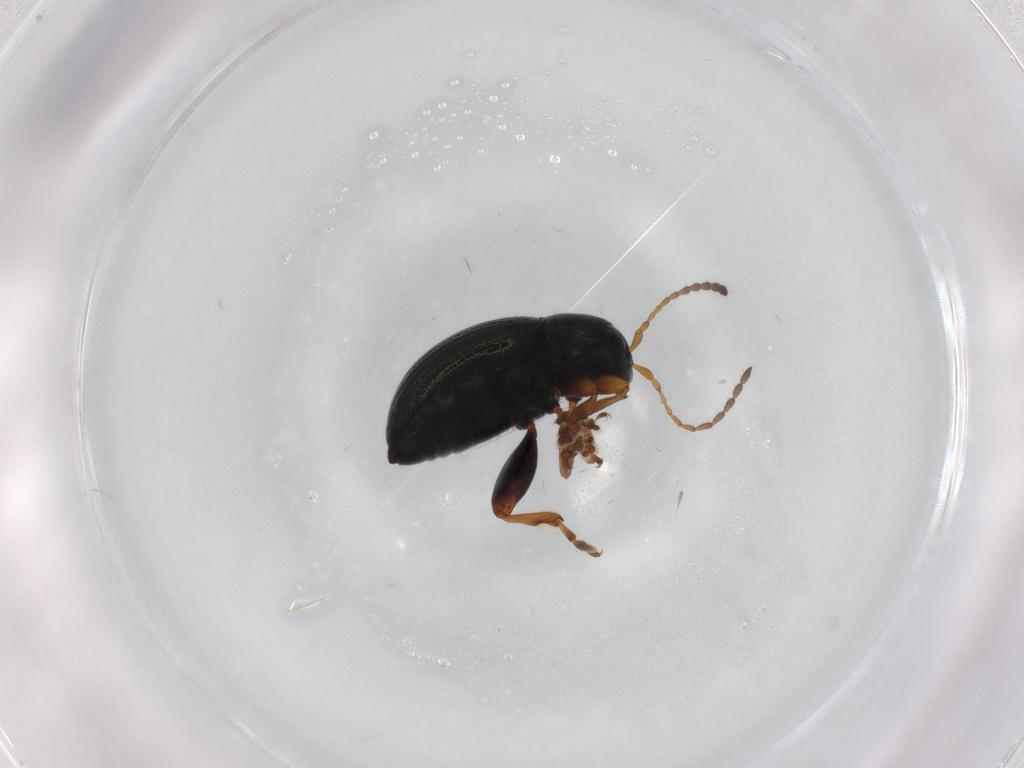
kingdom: Animalia
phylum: Arthropoda
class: Insecta
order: Coleoptera
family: Chrysomelidae
